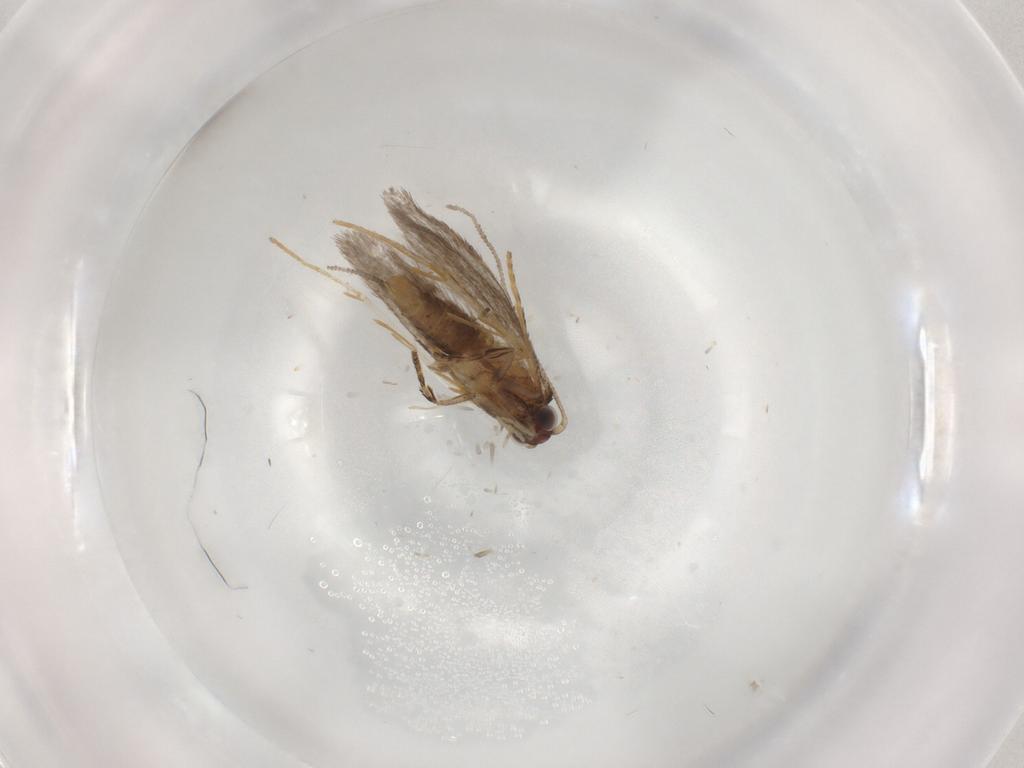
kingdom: Animalia
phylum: Arthropoda
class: Insecta
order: Lepidoptera
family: Tineidae
